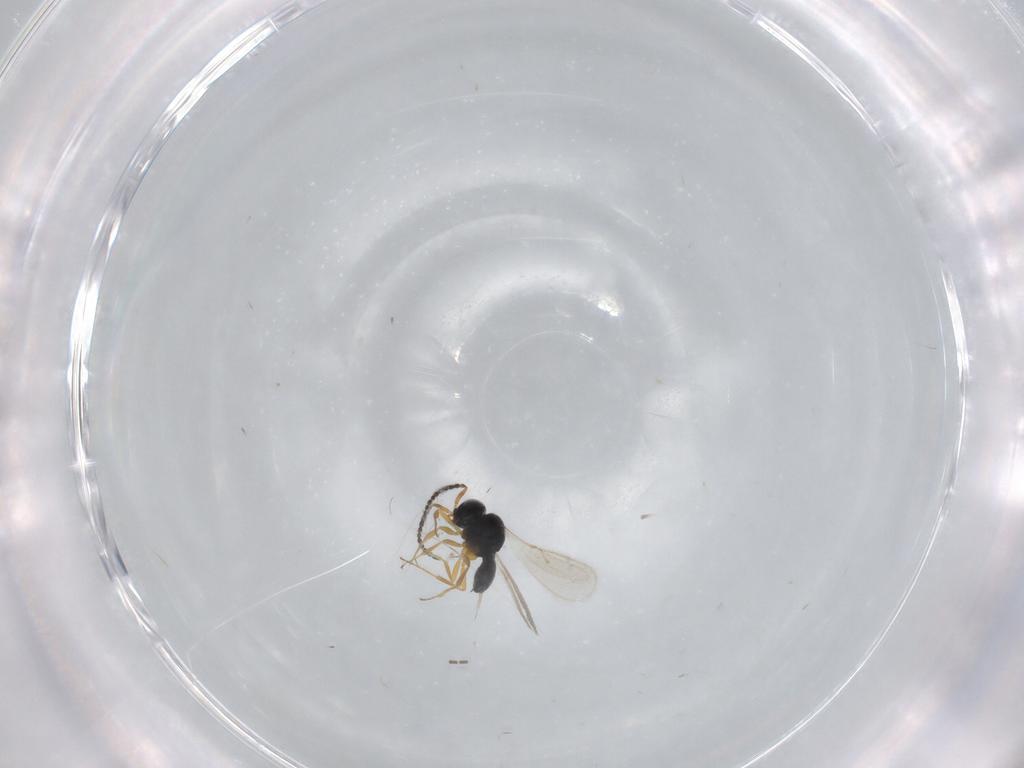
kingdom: Animalia
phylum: Arthropoda
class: Insecta
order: Hymenoptera
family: Scelionidae
